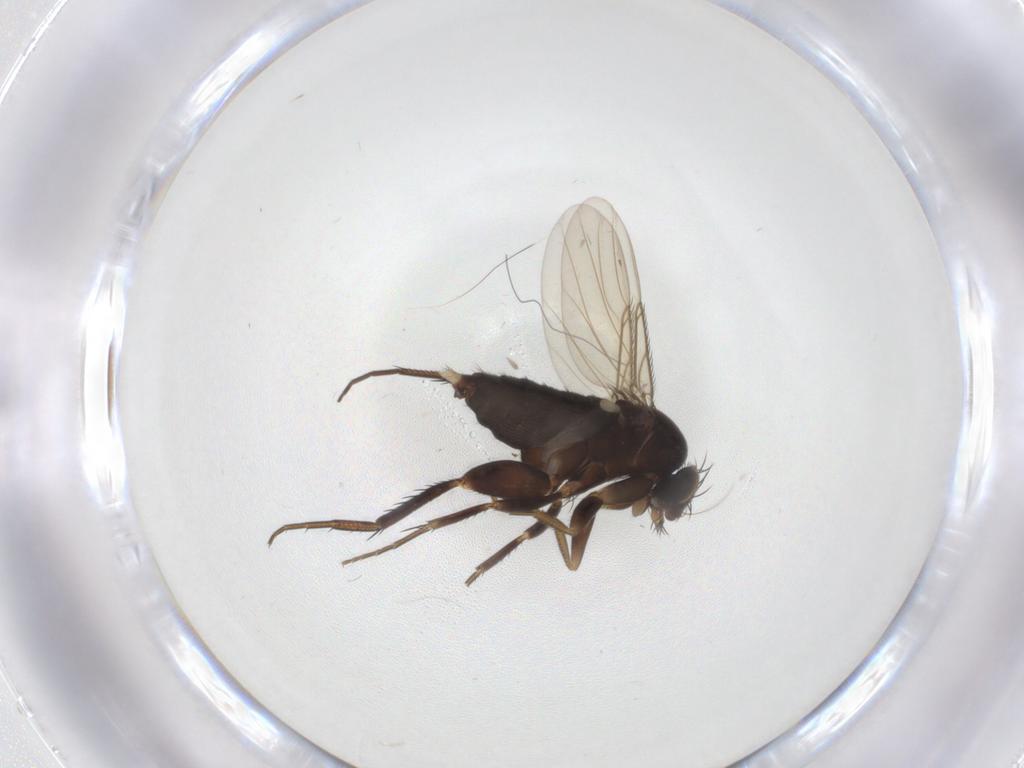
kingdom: Animalia
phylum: Arthropoda
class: Insecta
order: Diptera
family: Phoridae
